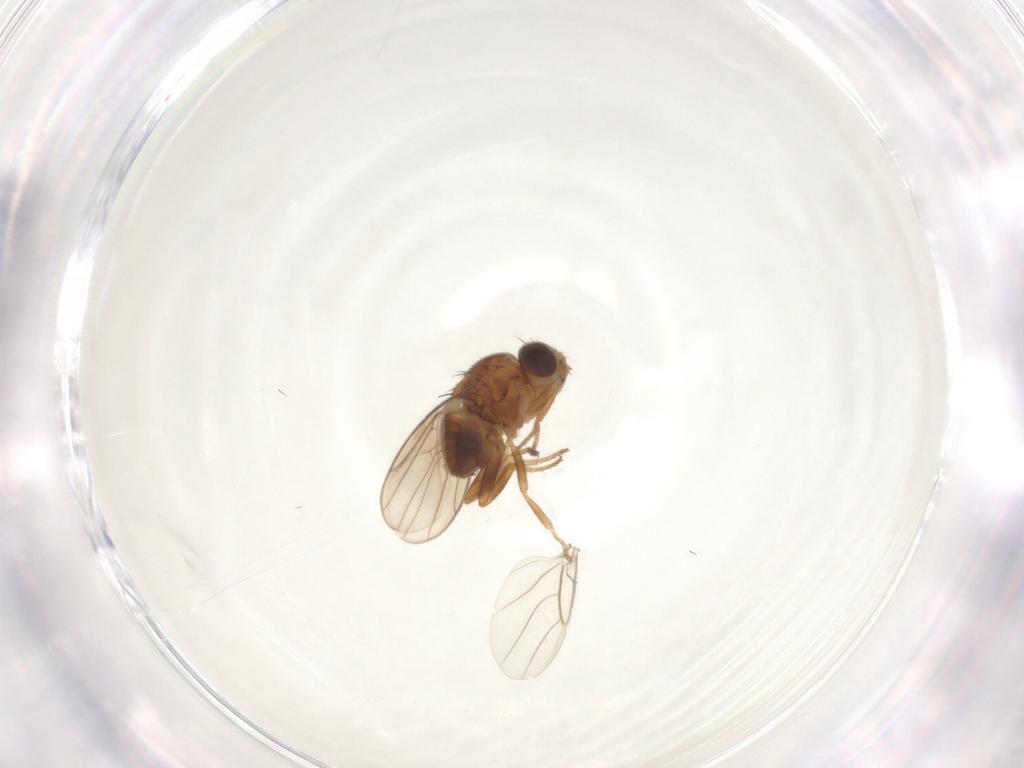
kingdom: Animalia
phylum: Arthropoda
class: Insecta
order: Diptera
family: Chloropidae
